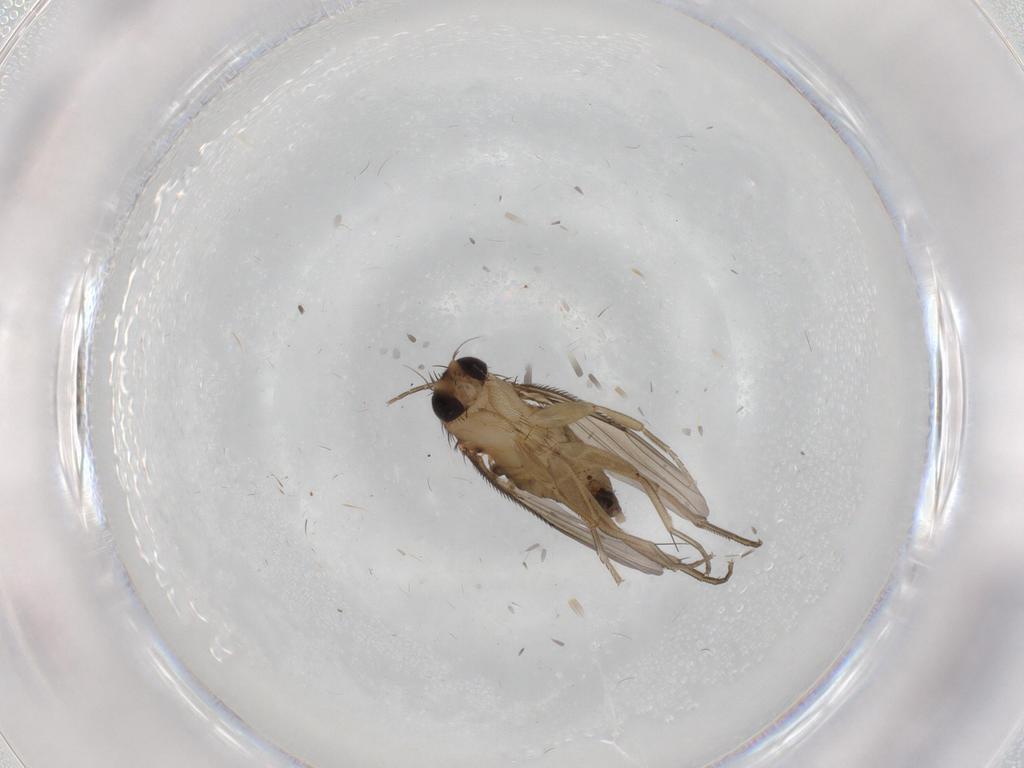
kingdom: Animalia
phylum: Arthropoda
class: Insecta
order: Diptera
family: Phoridae
